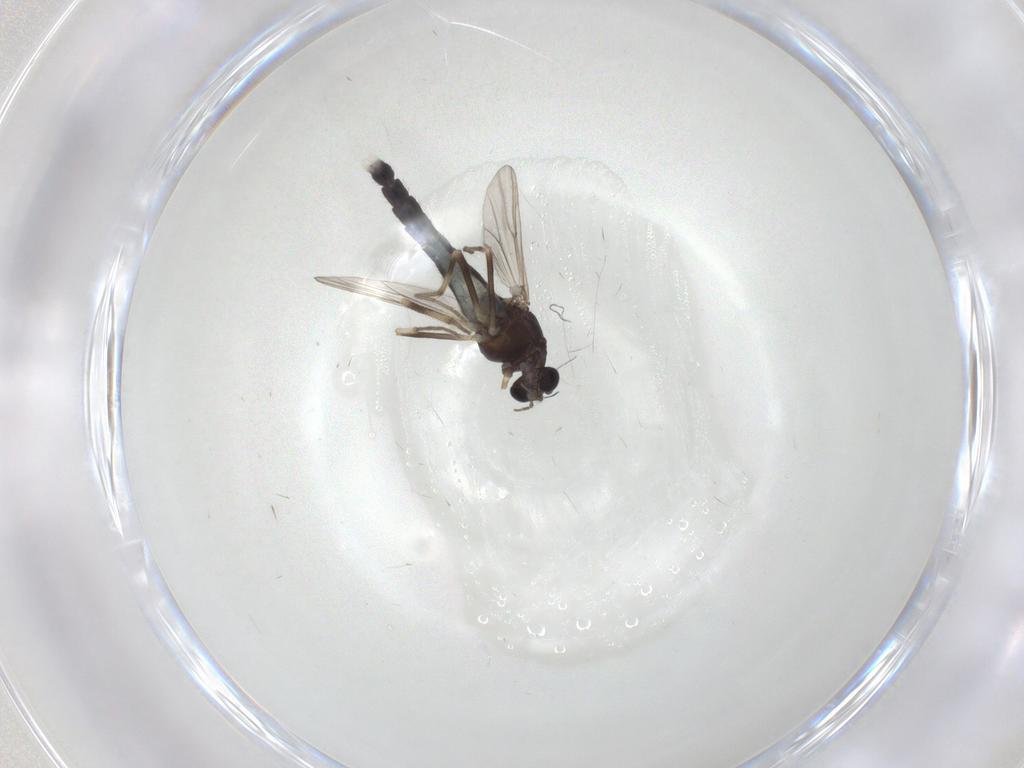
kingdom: Animalia
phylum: Arthropoda
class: Insecta
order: Diptera
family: Chironomidae
